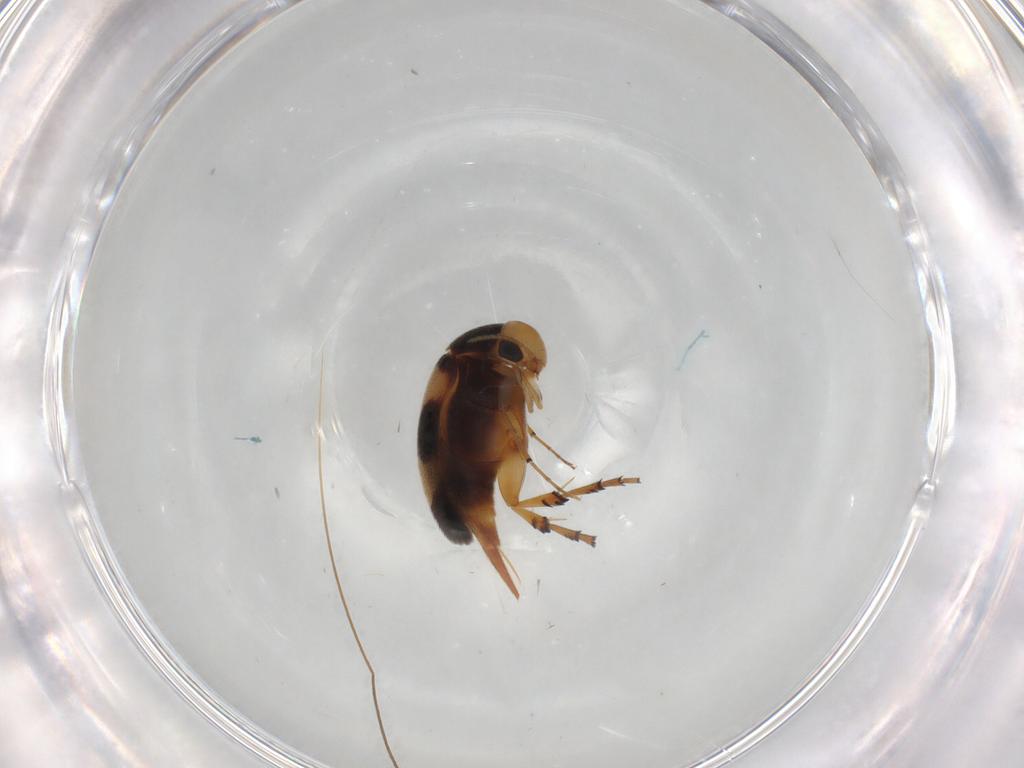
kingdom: Animalia
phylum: Arthropoda
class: Insecta
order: Coleoptera
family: Mordellidae
